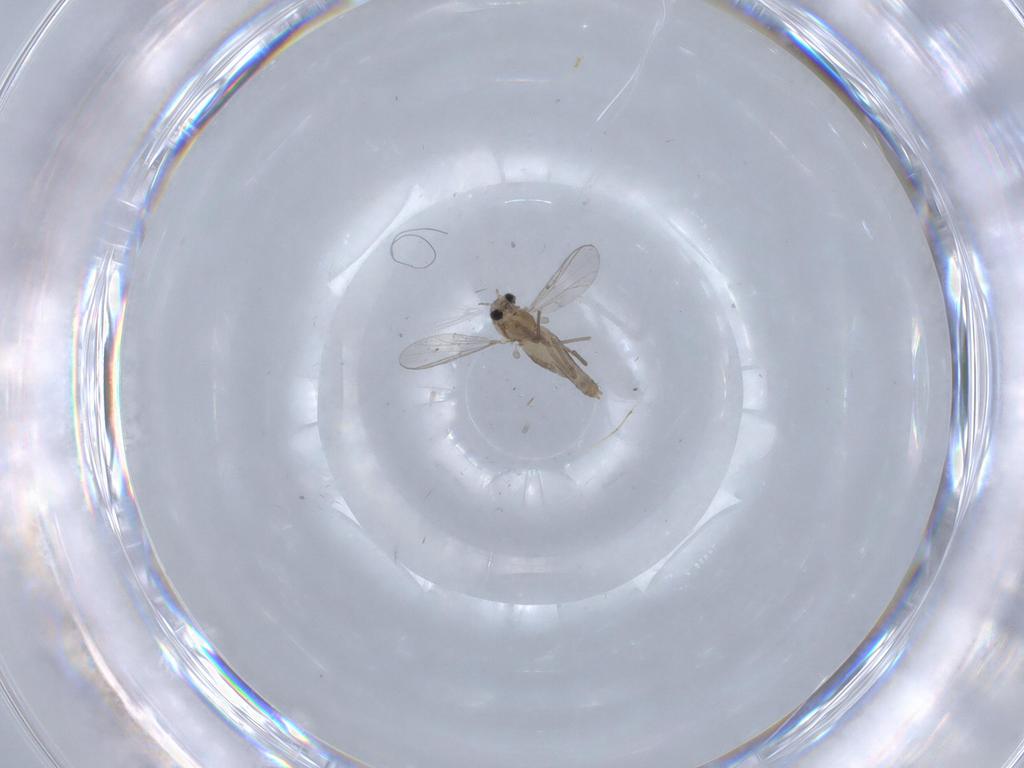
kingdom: Animalia
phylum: Arthropoda
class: Insecta
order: Diptera
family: Chironomidae
